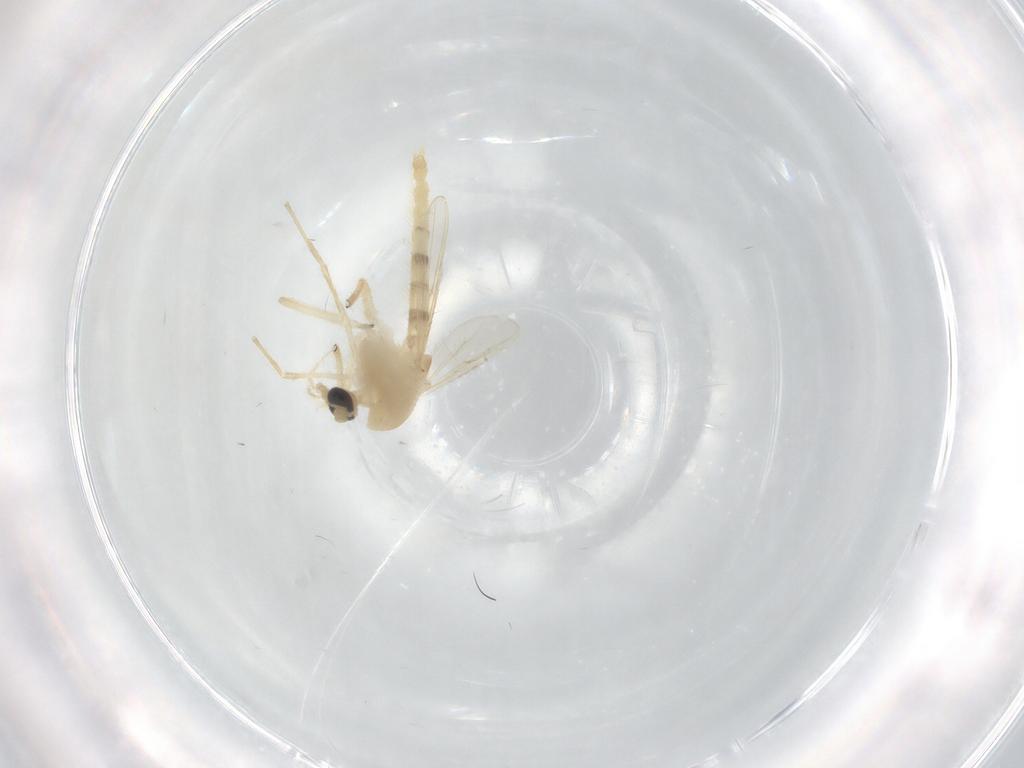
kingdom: Animalia
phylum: Arthropoda
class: Insecta
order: Diptera
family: Chironomidae
